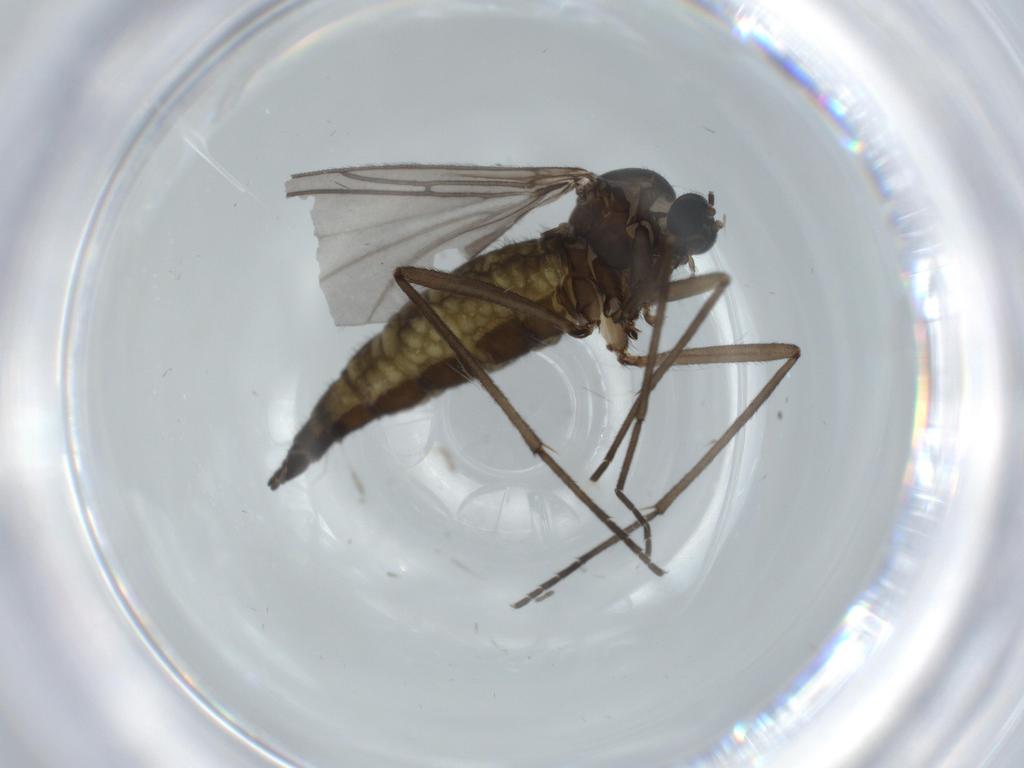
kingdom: Animalia
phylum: Arthropoda
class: Insecta
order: Diptera
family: Sciaridae
